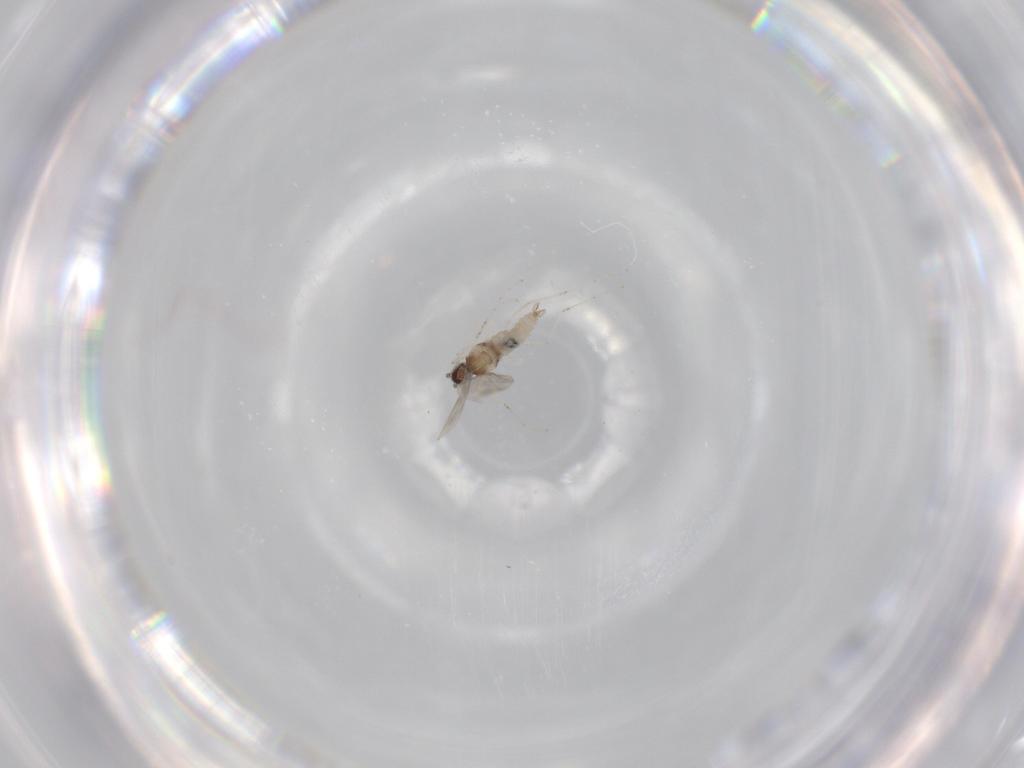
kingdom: Animalia
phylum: Arthropoda
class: Insecta
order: Diptera
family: Cecidomyiidae
